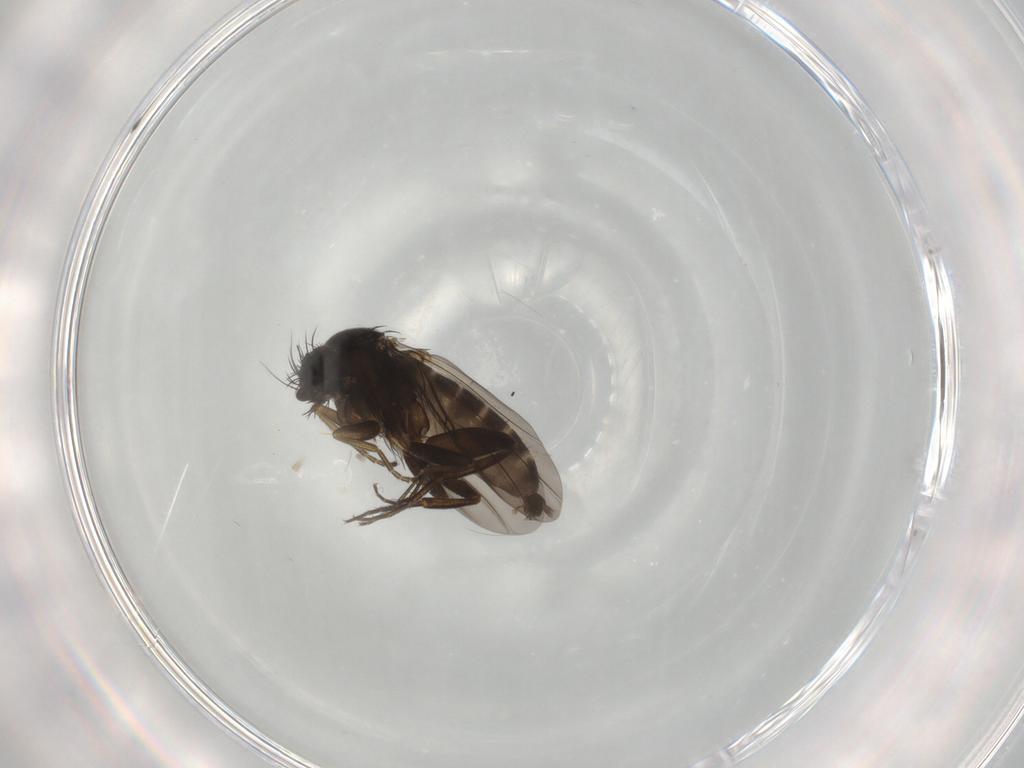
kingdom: Animalia
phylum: Arthropoda
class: Insecta
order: Diptera
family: Phoridae
